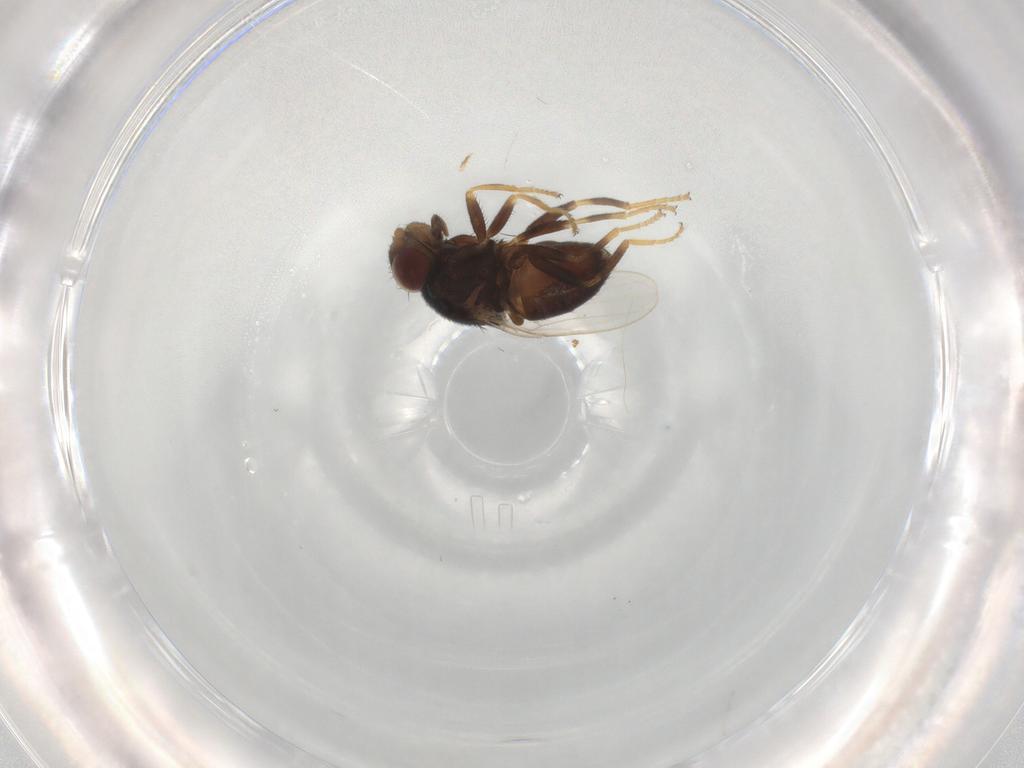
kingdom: Animalia
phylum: Arthropoda
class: Insecta
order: Diptera
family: Chloropidae
